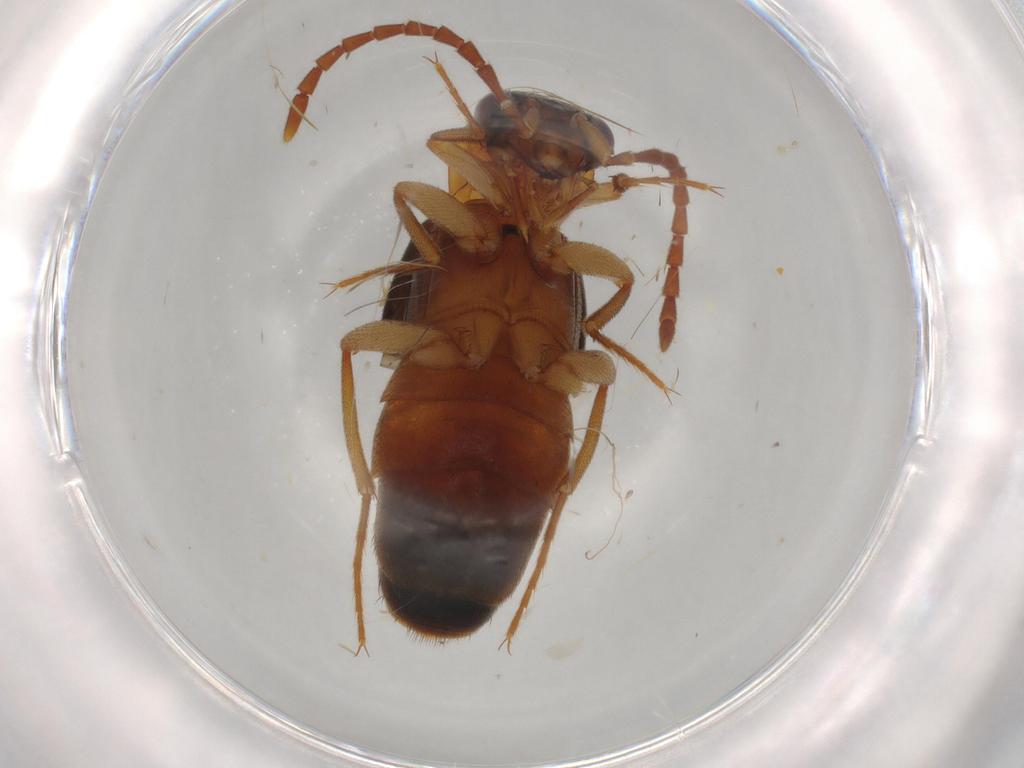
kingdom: Animalia
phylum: Arthropoda
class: Insecta
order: Coleoptera
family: Staphylinidae
